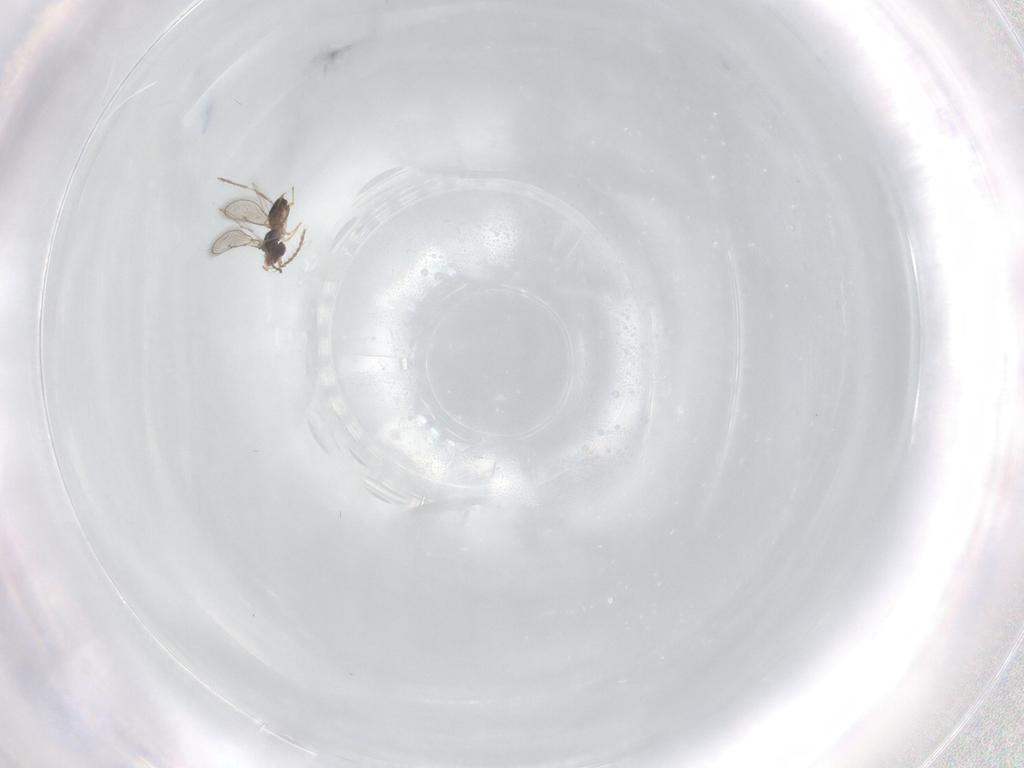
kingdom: Animalia
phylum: Arthropoda
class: Insecta
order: Hymenoptera
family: Eulophidae
